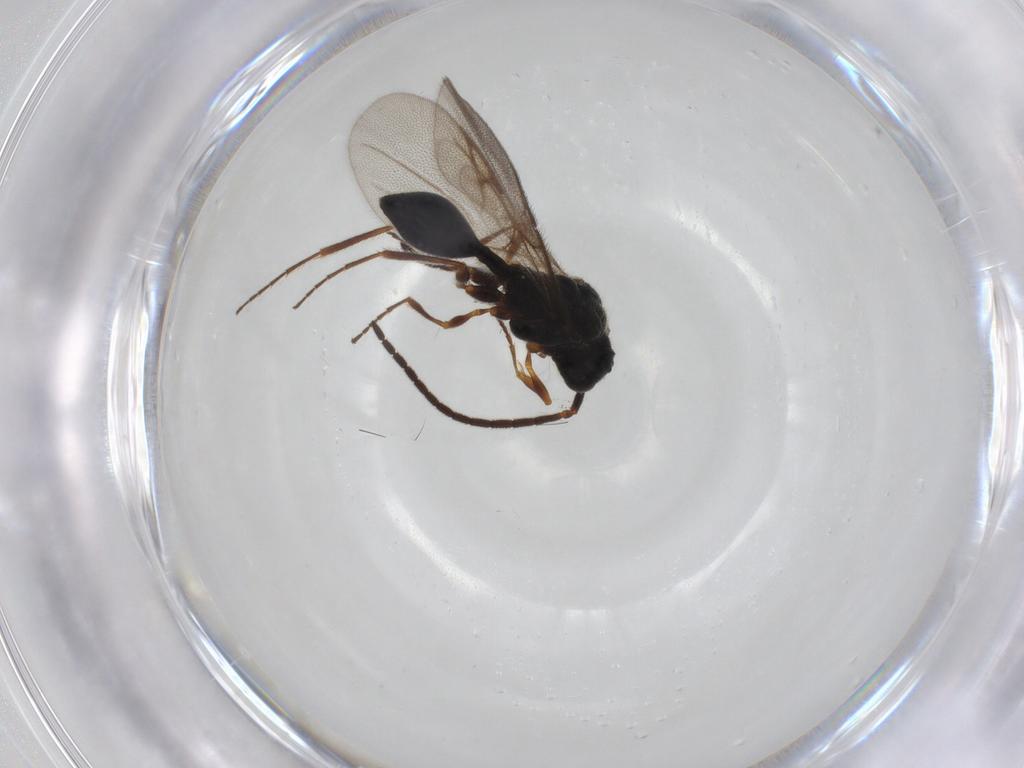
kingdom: Animalia
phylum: Arthropoda
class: Insecta
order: Hymenoptera
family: Diapriidae
